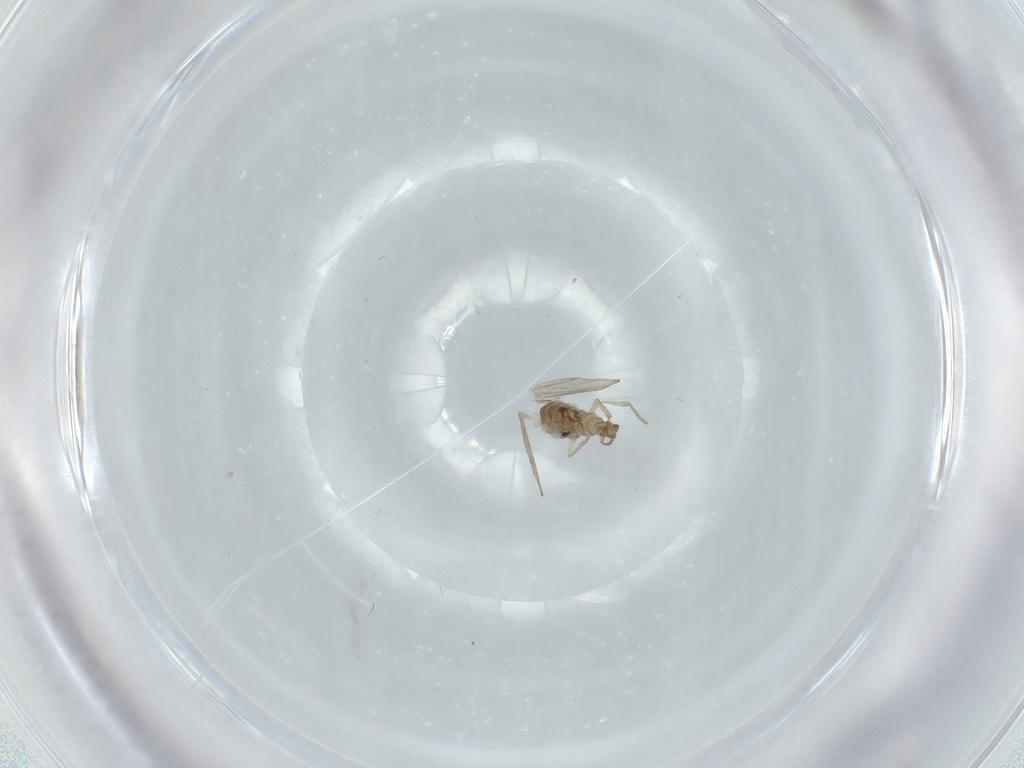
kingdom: Animalia
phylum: Arthropoda
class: Insecta
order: Diptera
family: Psychodidae
